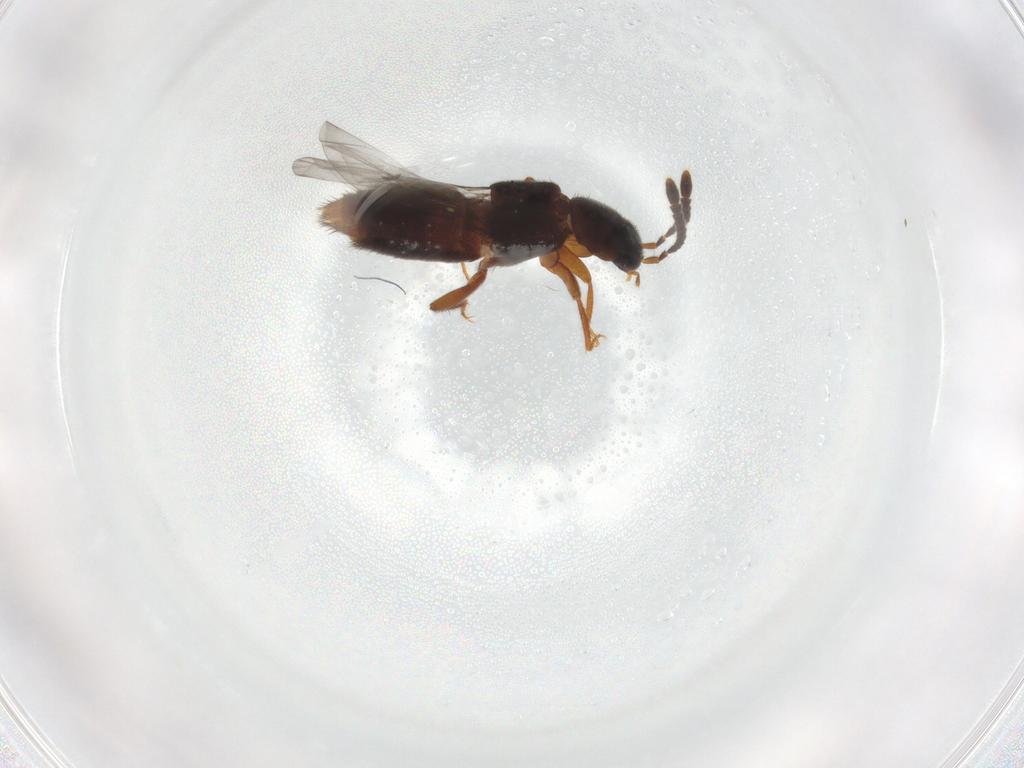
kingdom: Animalia
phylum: Arthropoda
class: Insecta
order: Coleoptera
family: Staphylinidae
